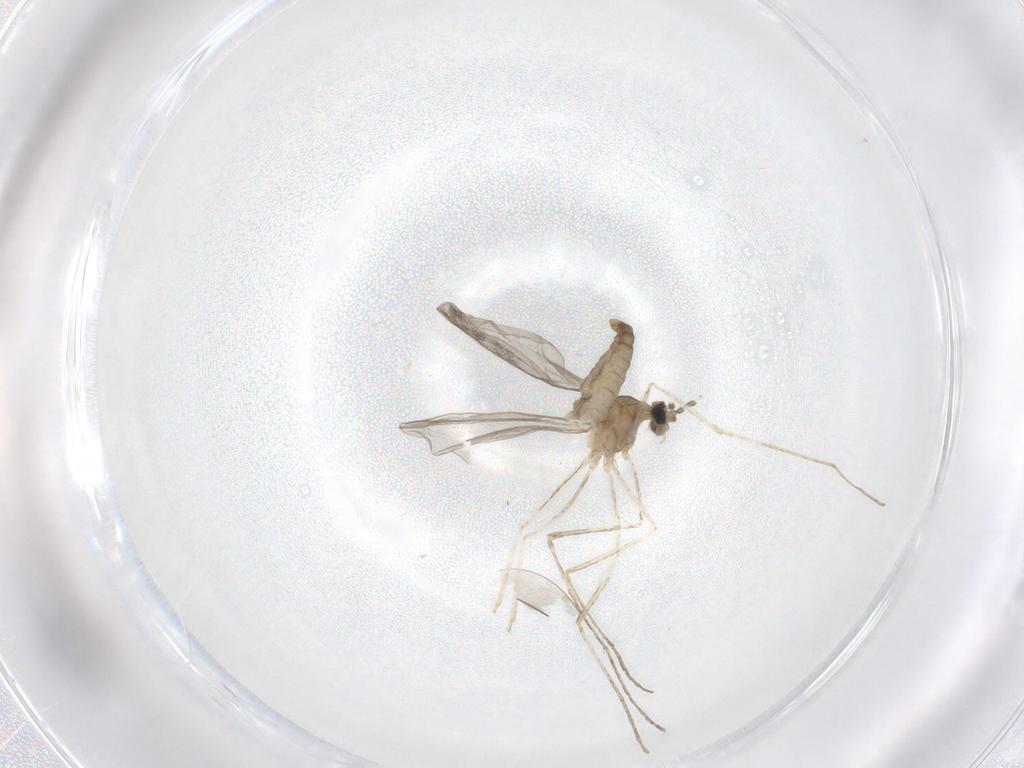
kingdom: Animalia
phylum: Arthropoda
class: Insecta
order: Diptera
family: Cecidomyiidae
